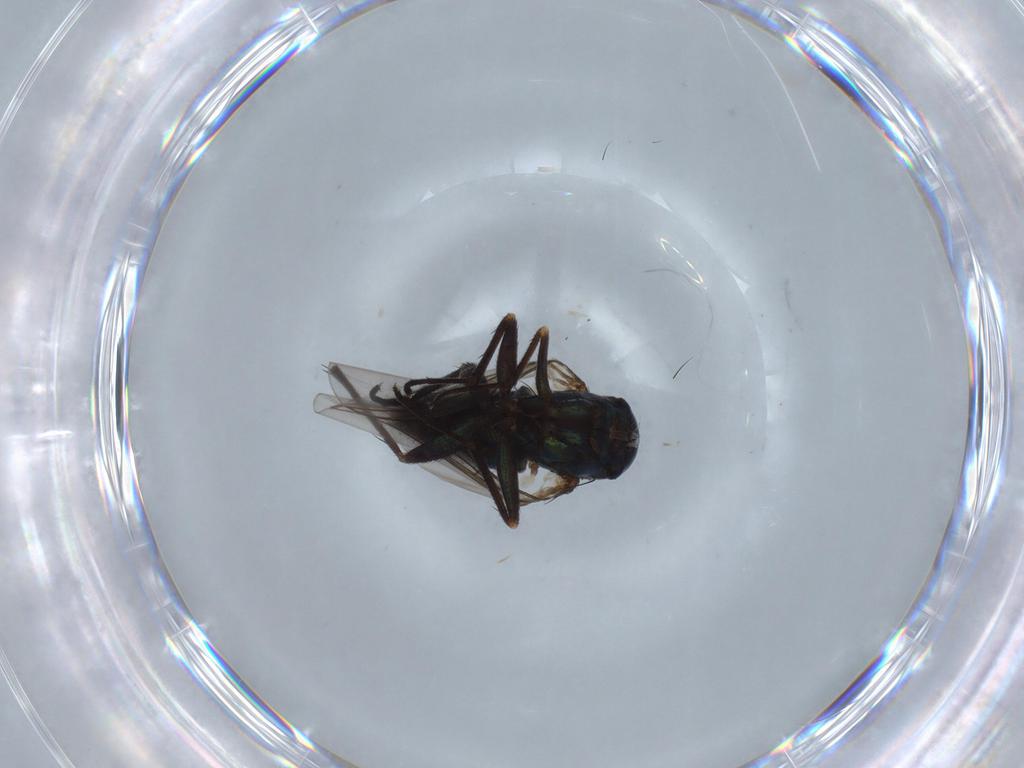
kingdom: Animalia
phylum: Arthropoda
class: Insecta
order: Diptera
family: Dolichopodidae
